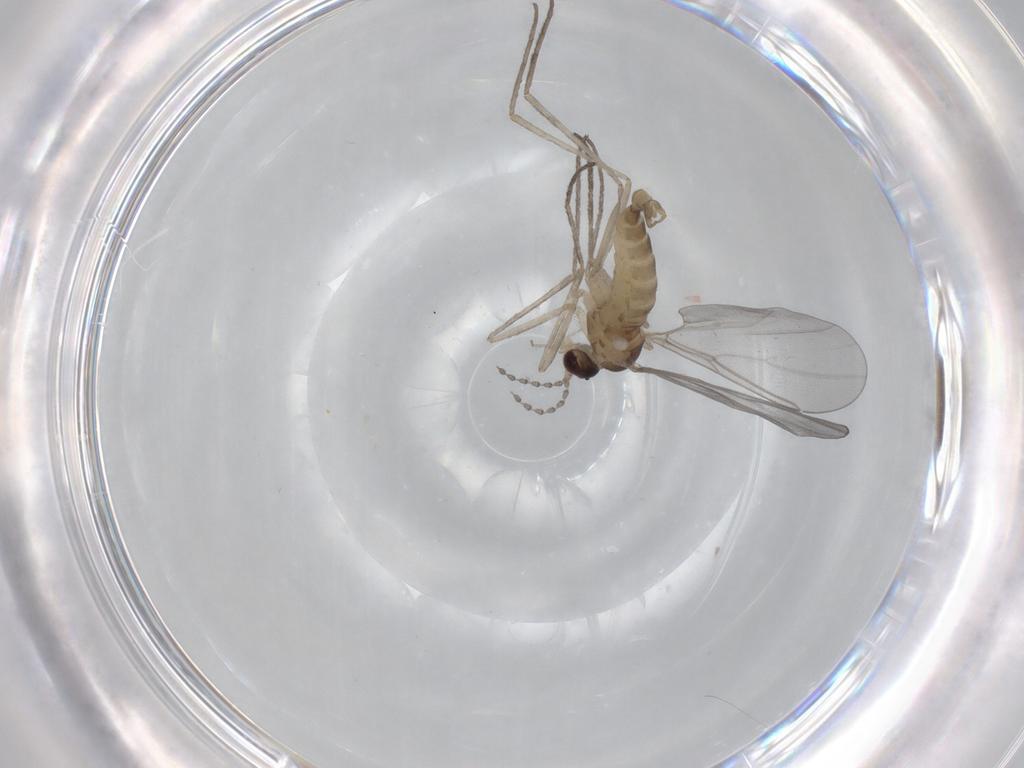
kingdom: Animalia
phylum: Arthropoda
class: Insecta
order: Diptera
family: Cecidomyiidae
